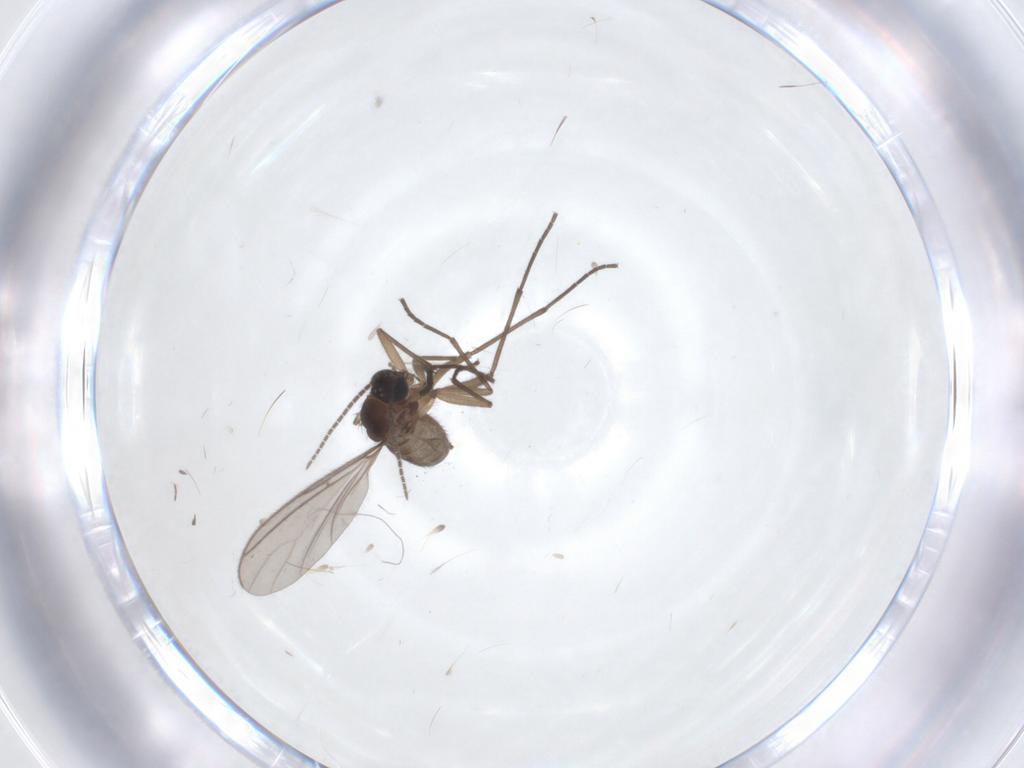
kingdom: Animalia
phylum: Arthropoda
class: Insecta
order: Diptera
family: Sciaridae
